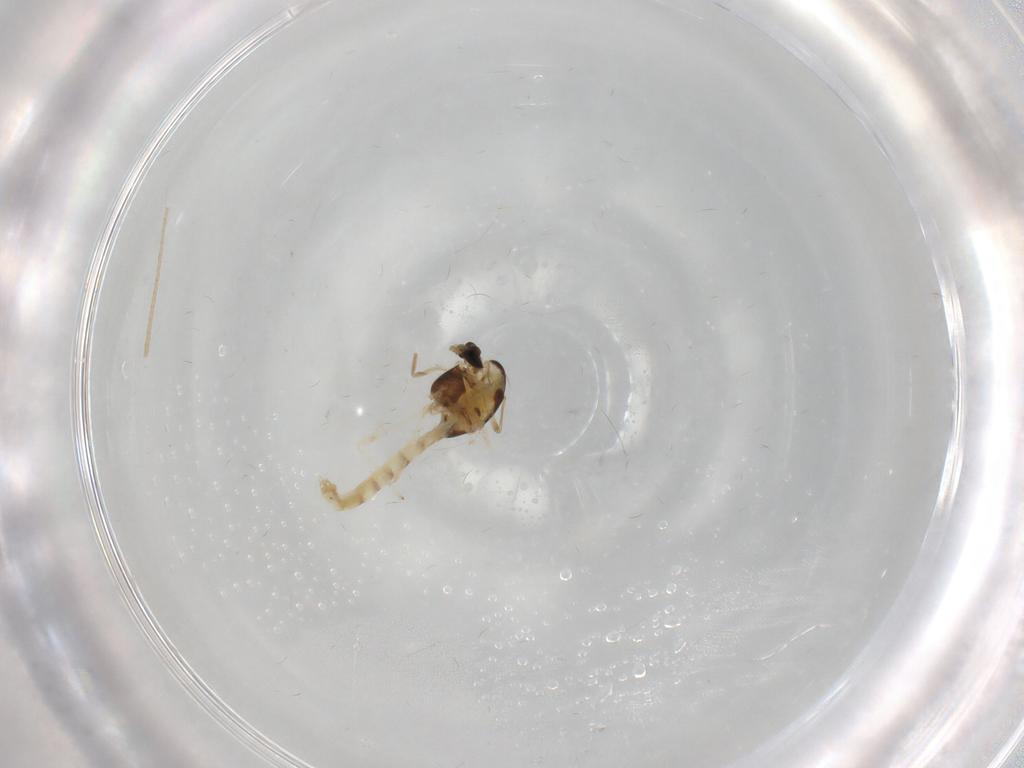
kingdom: Animalia
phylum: Arthropoda
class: Insecta
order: Diptera
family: Chironomidae
